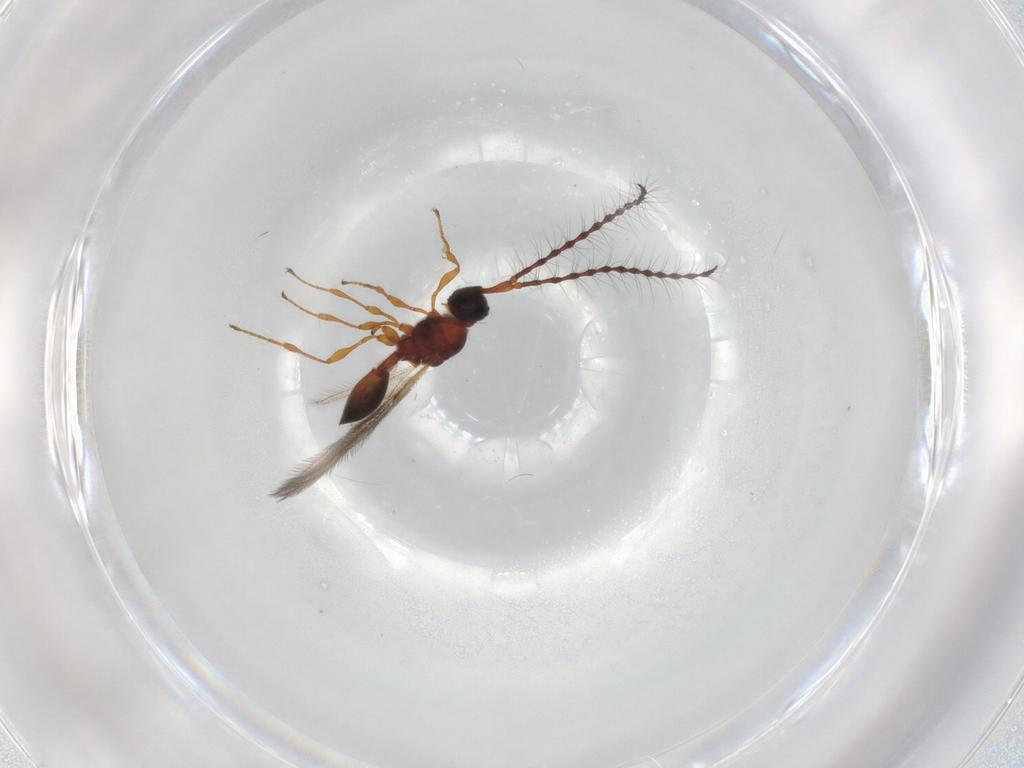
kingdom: Animalia
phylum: Arthropoda
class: Insecta
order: Hymenoptera
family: Diapriidae
